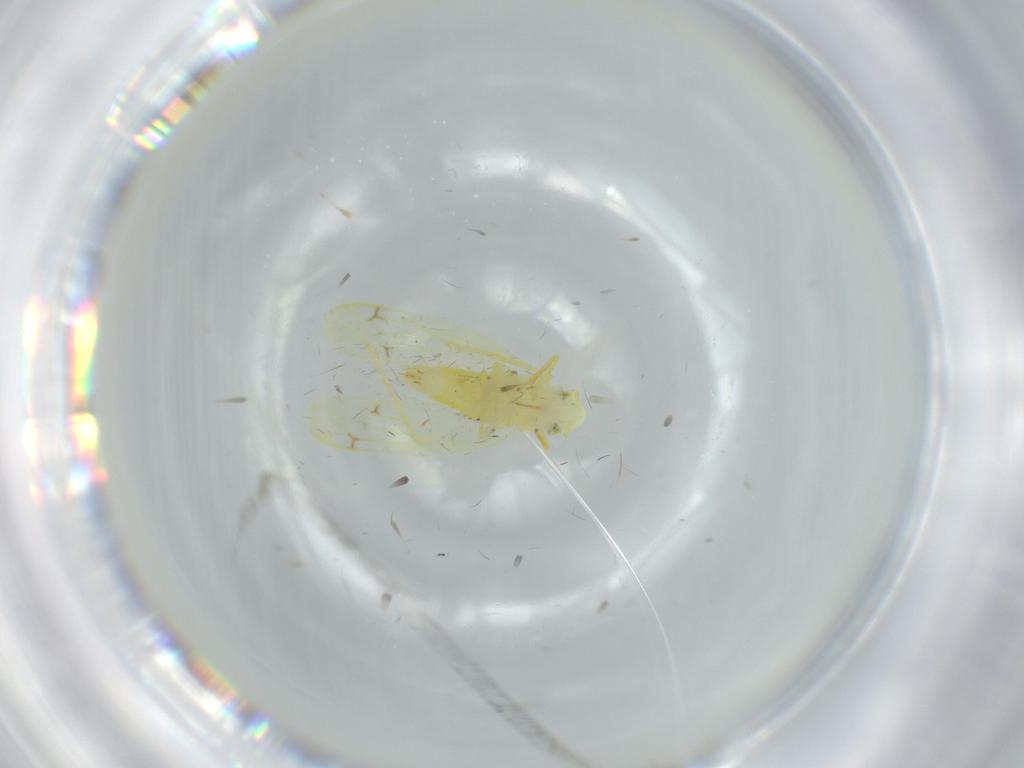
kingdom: Animalia
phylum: Arthropoda
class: Insecta
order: Hemiptera
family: Cicadellidae
